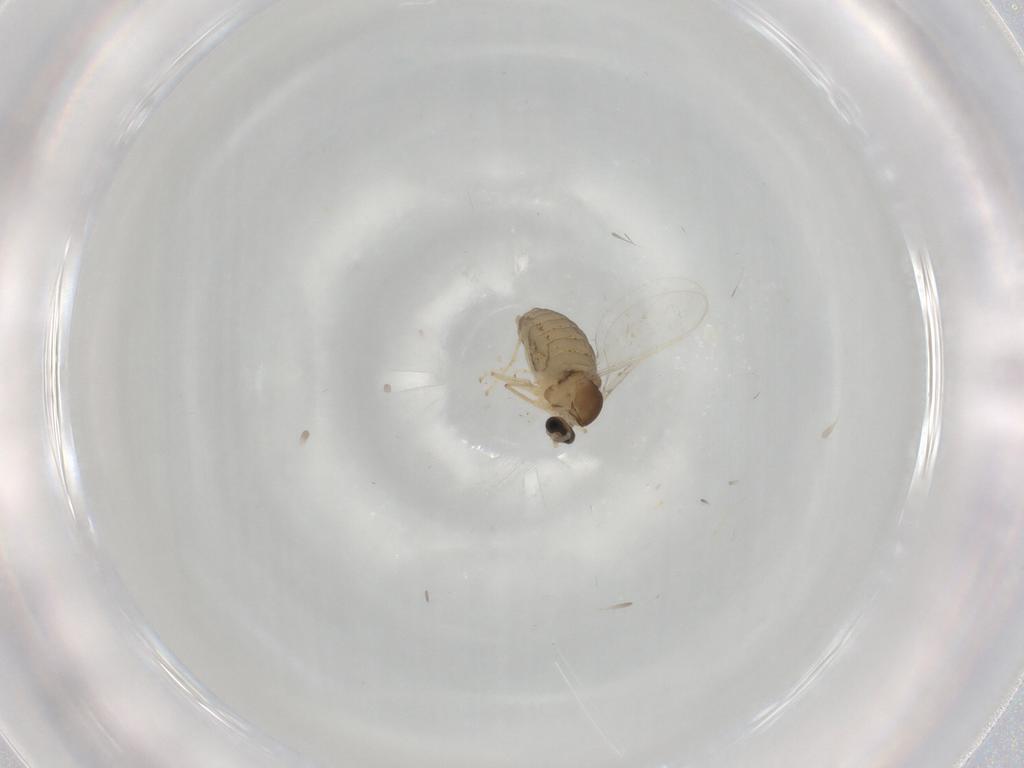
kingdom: Animalia
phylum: Arthropoda
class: Insecta
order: Diptera
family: Cecidomyiidae
